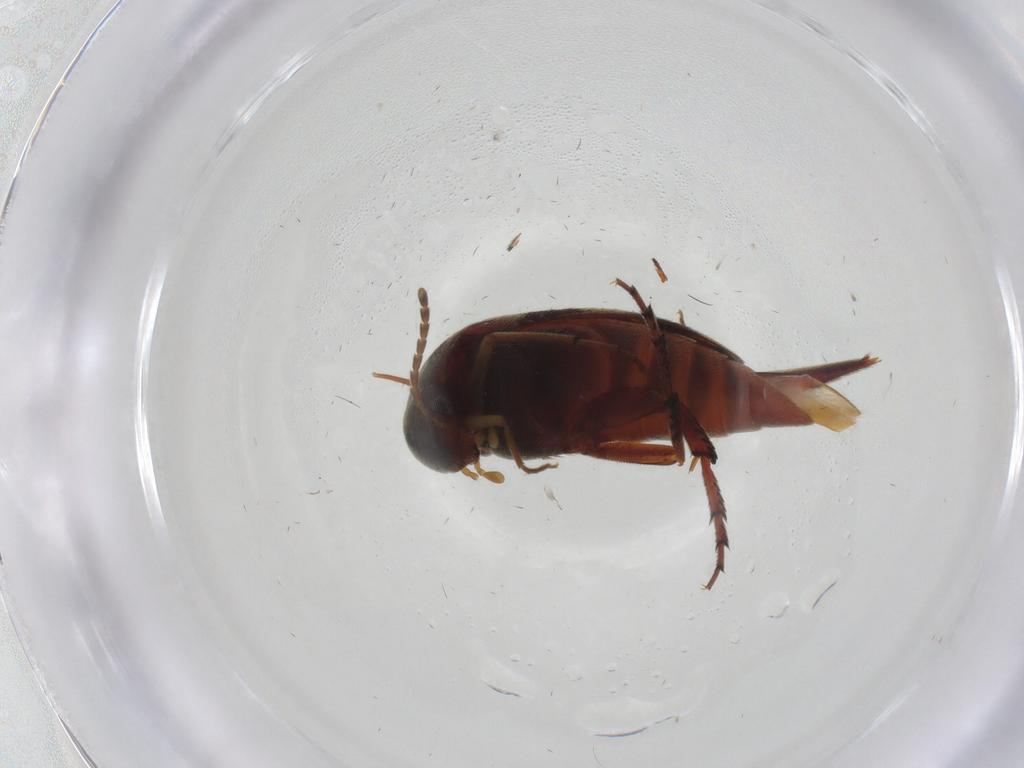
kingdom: Animalia
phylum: Arthropoda
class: Insecta
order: Coleoptera
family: Mordellidae
